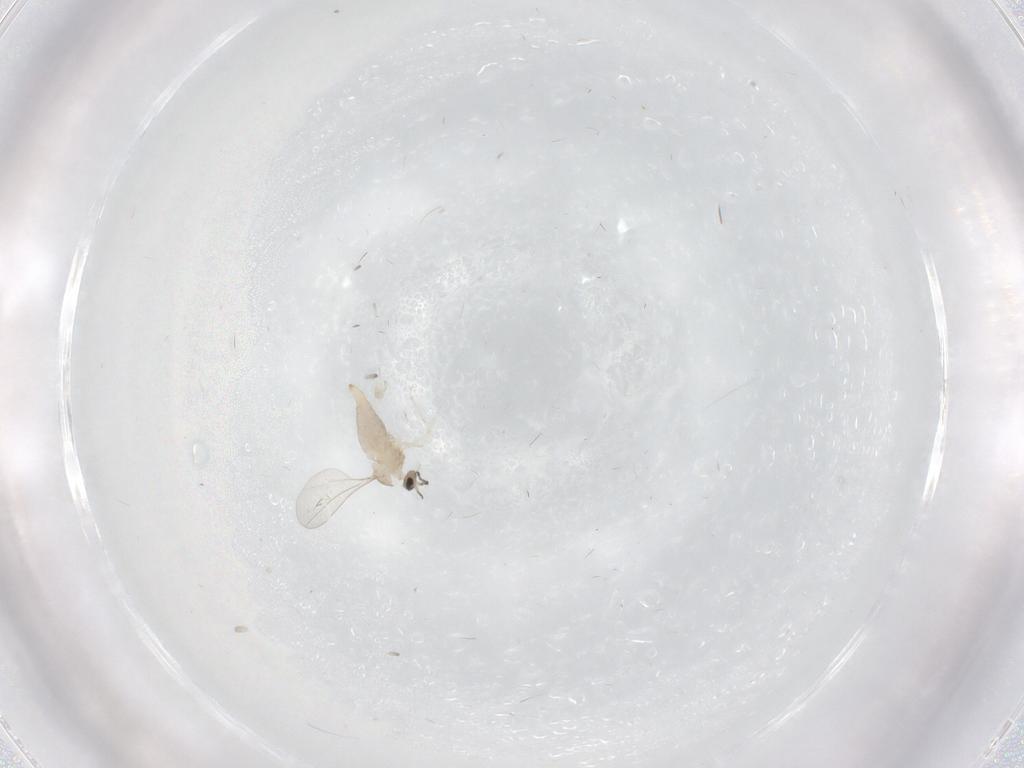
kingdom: Animalia
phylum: Arthropoda
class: Insecta
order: Diptera
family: Cecidomyiidae
